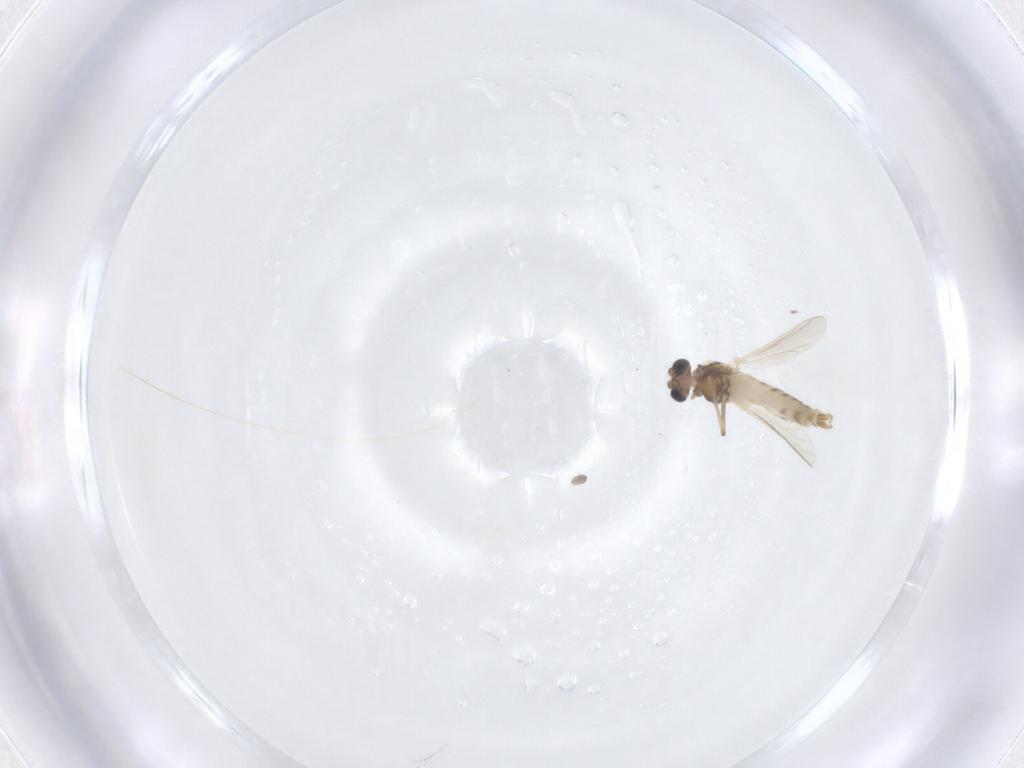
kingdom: Animalia
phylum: Arthropoda
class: Insecta
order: Diptera
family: Chironomidae
